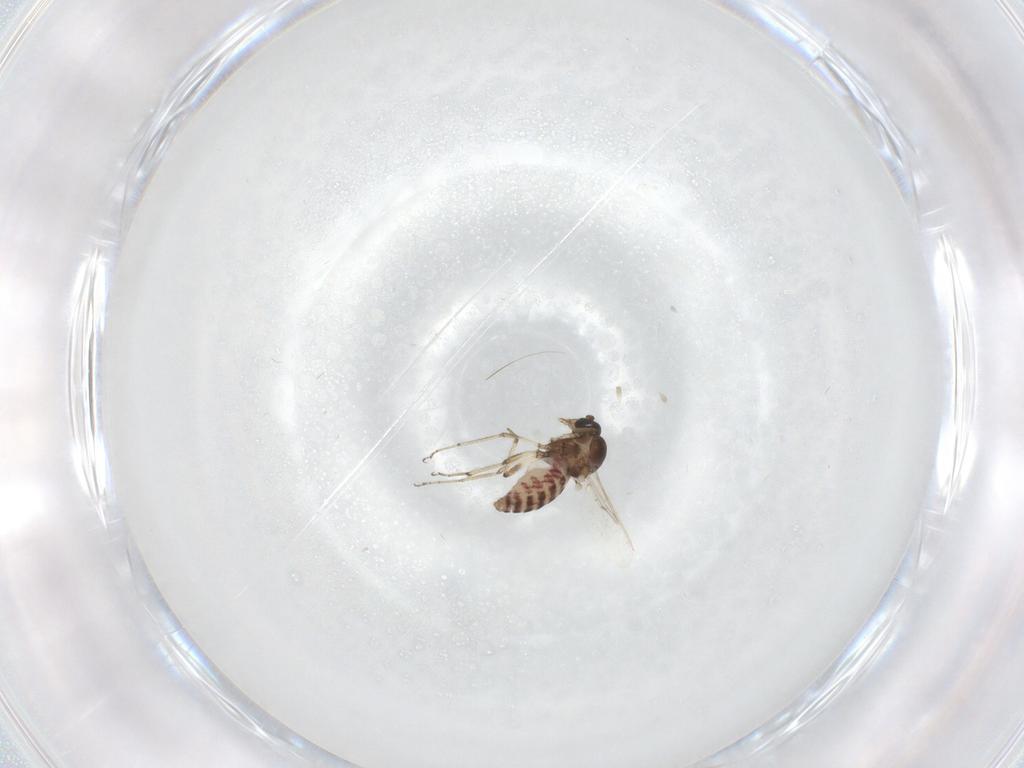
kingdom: Animalia
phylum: Arthropoda
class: Insecta
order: Diptera
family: Ceratopogonidae
